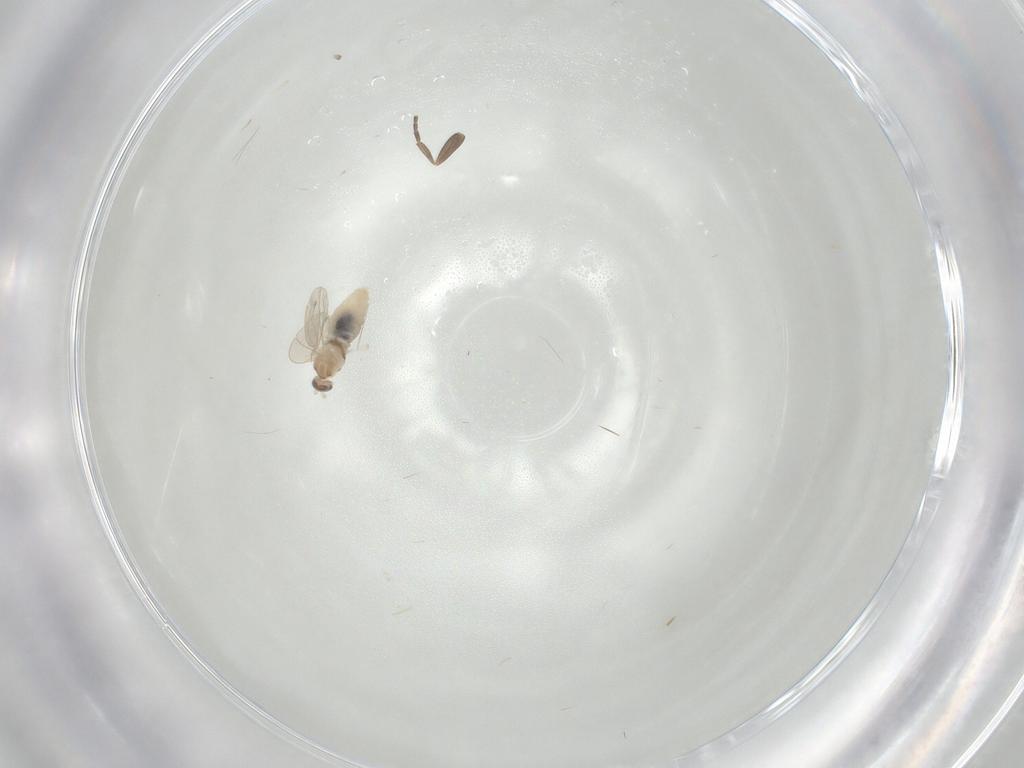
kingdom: Animalia
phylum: Arthropoda
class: Insecta
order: Diptera
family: Cecidomyiidae
